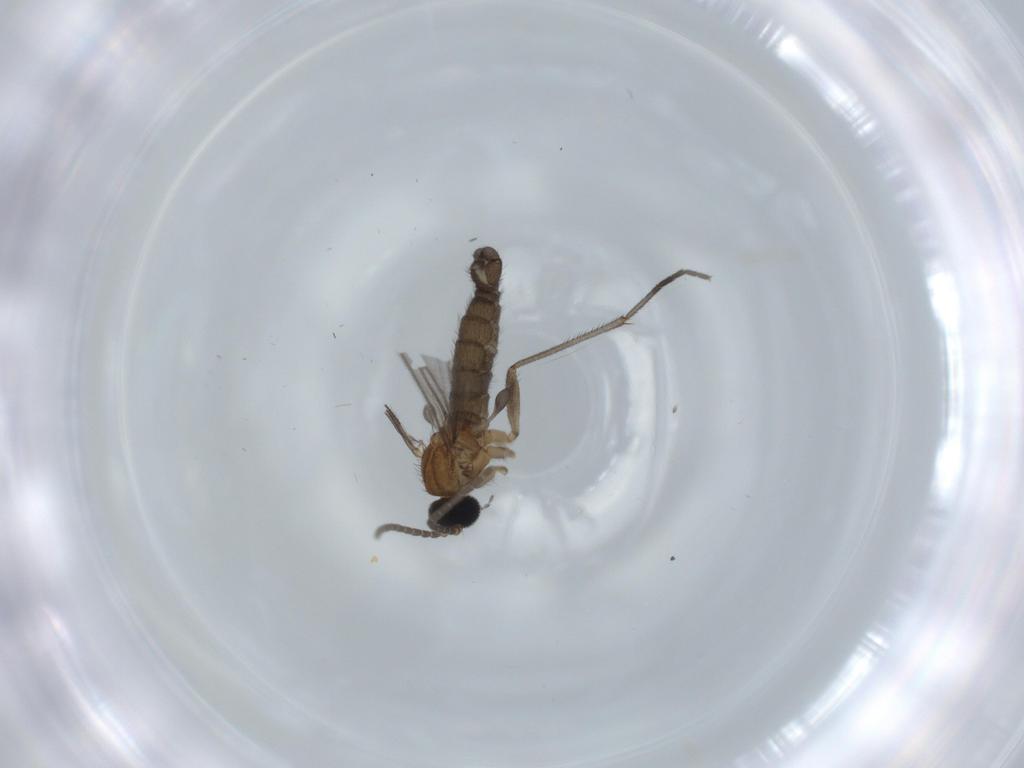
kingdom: Animalia
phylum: Arthropoda
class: Insecta
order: Diptera
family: Sciaridae
